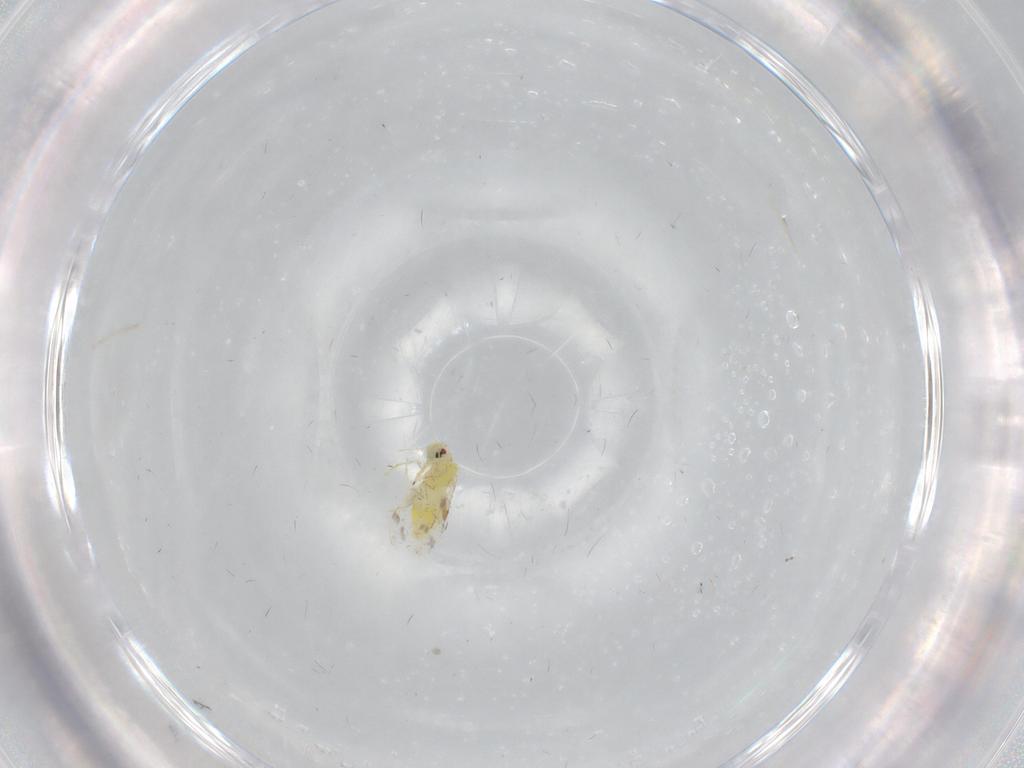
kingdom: Animalia
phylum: Arthropoda
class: Insecta
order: Hemiptera
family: Aleyrodidae
